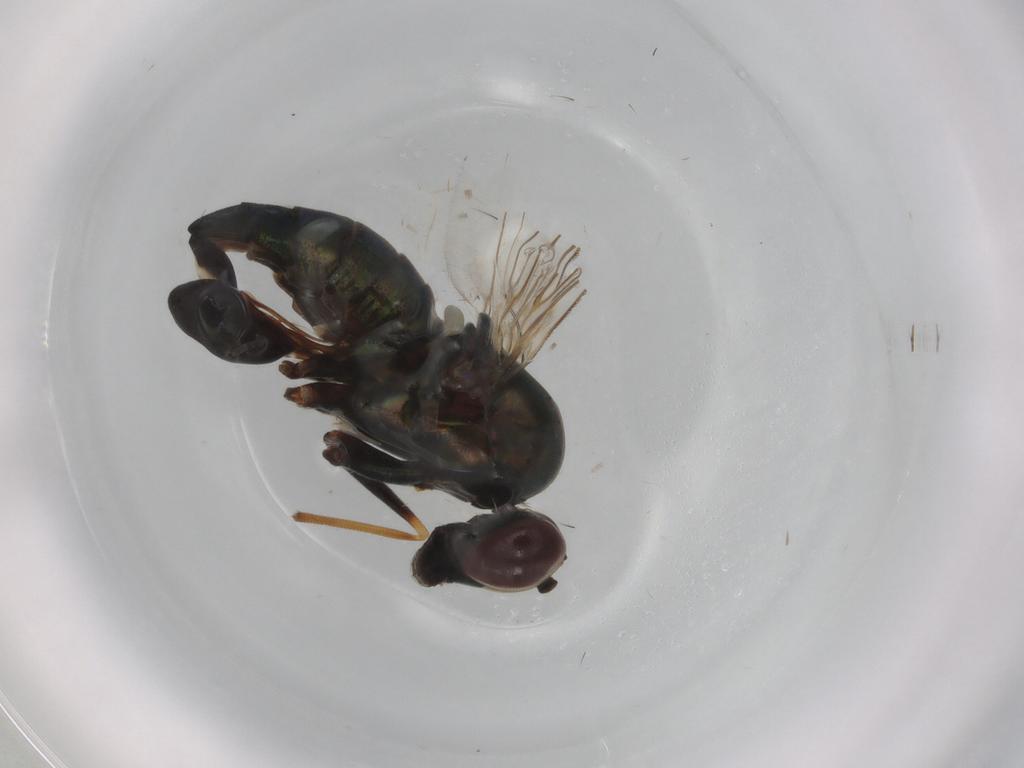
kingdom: Animalia
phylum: Arthropoda
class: Insecta
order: Diptera
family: Dolichopodidae
